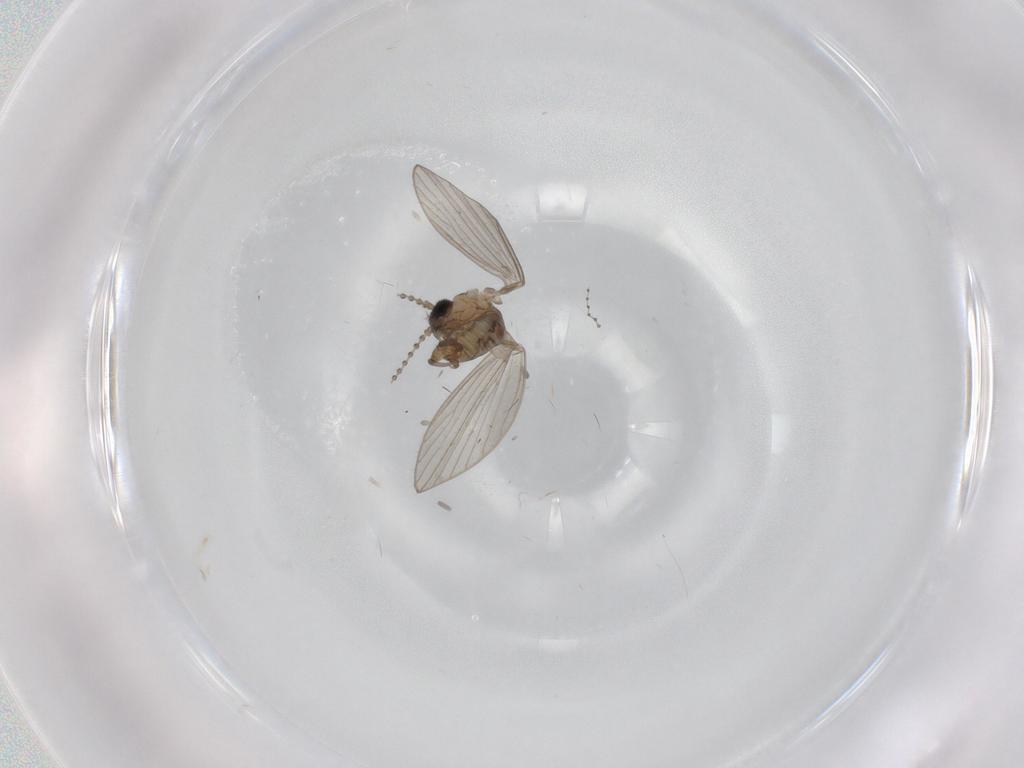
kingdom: Animalia
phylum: Arthropoda
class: Insecta
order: Diptera
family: Psychodidae
